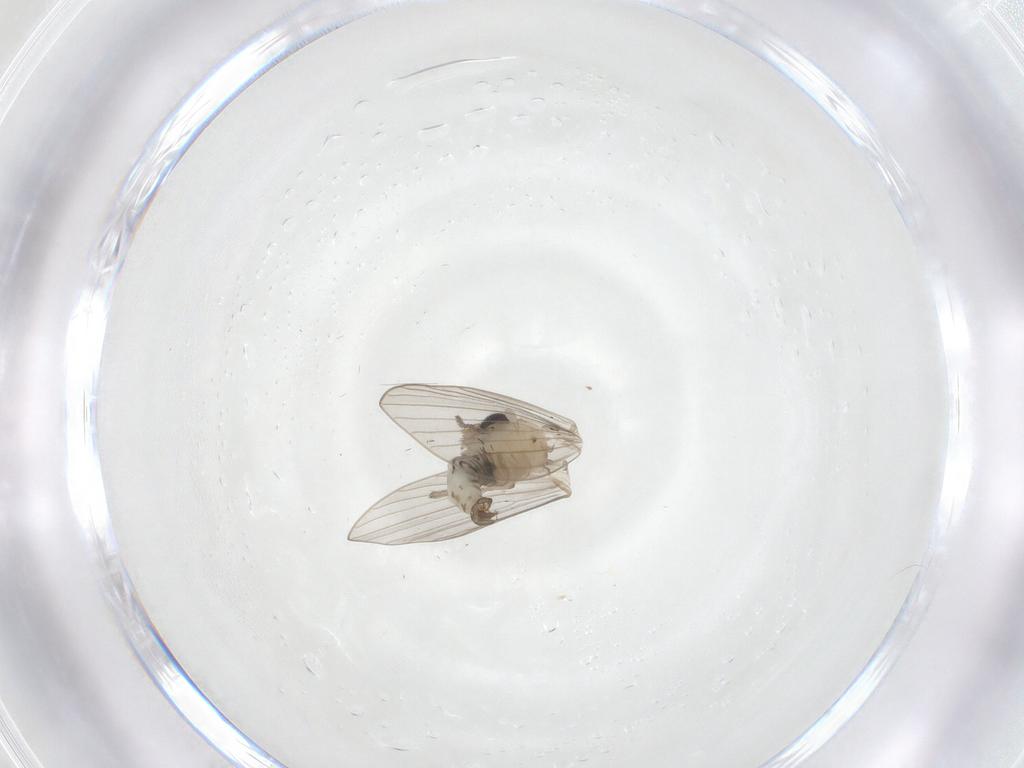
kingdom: Animalia
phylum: Arthropoda
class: Insecta
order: Diptera
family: Psychodidae
